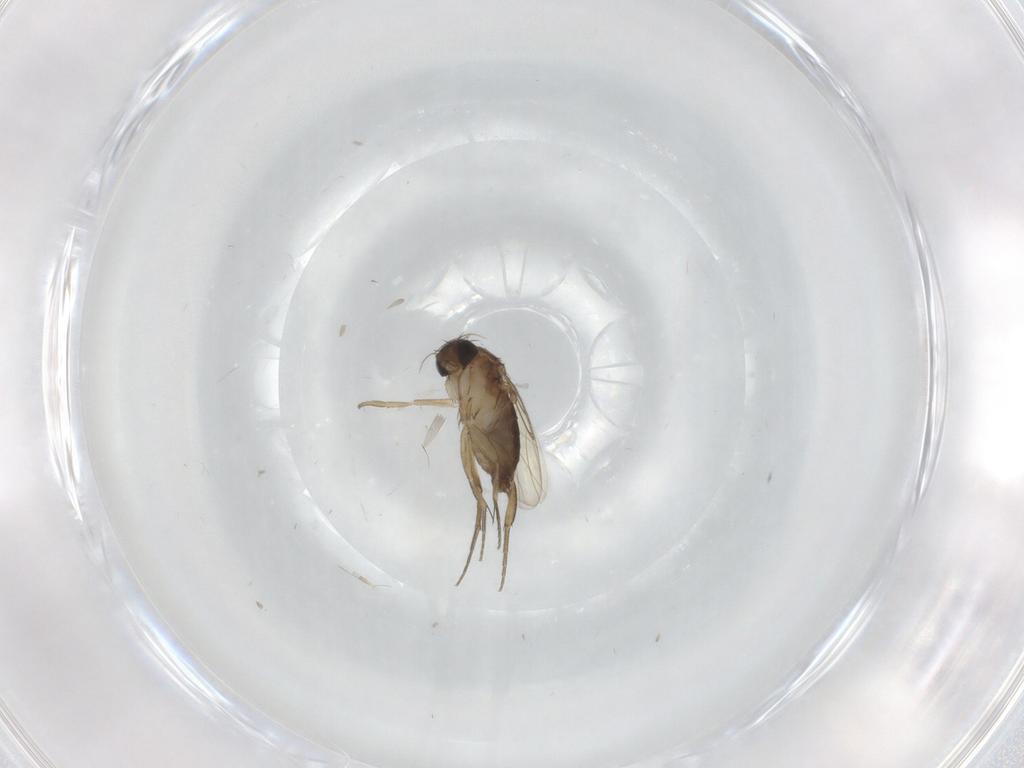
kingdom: Animalia
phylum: Arthropoda
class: Insecta
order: Diptera
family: Phoridae
